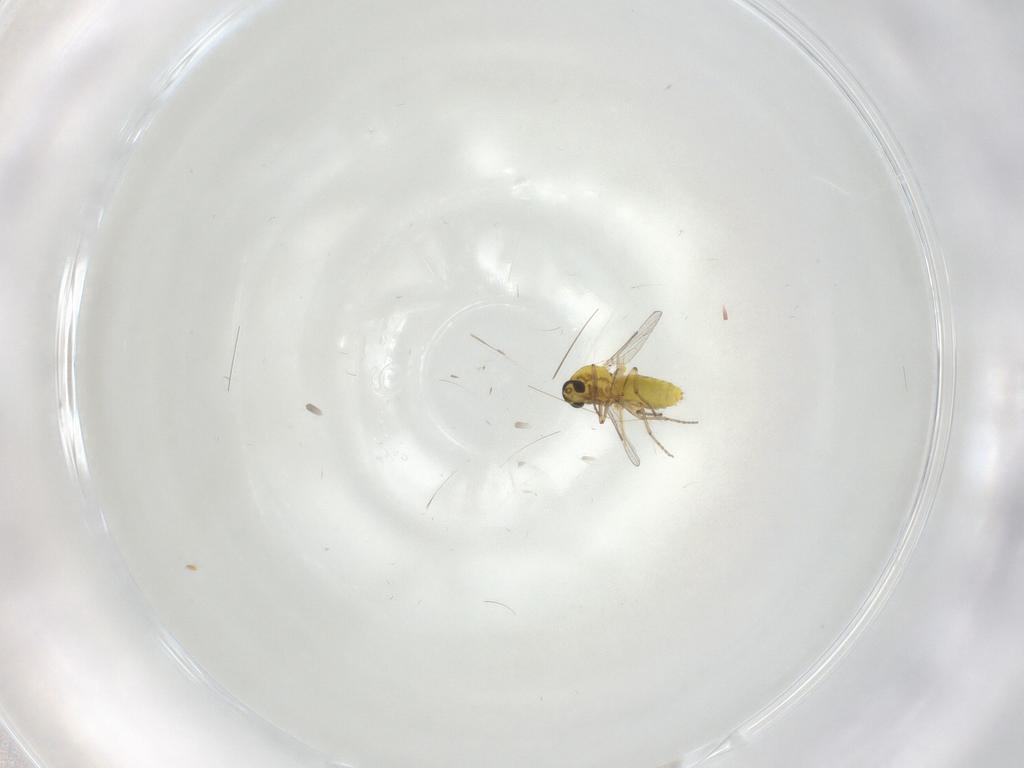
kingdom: Animalia
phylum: Arthropoda
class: Insecta
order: Diptera
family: Ceratopogonidae
